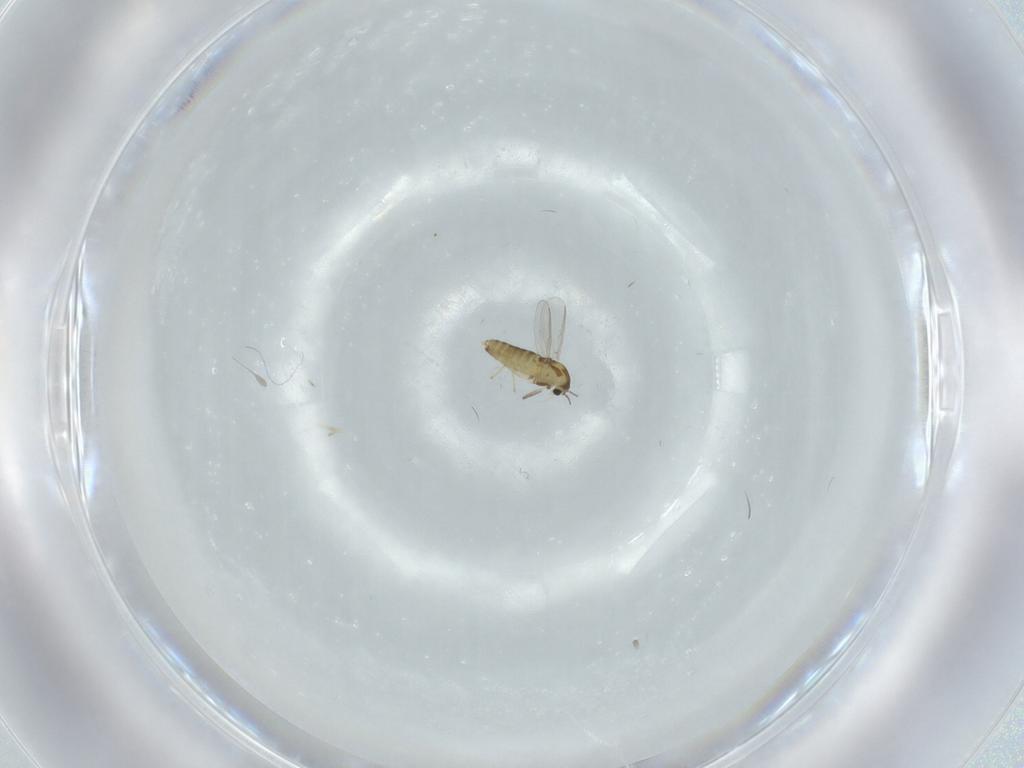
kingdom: Animalia
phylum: Arthropoda
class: Insecta
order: Diptera
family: Chironomidae
